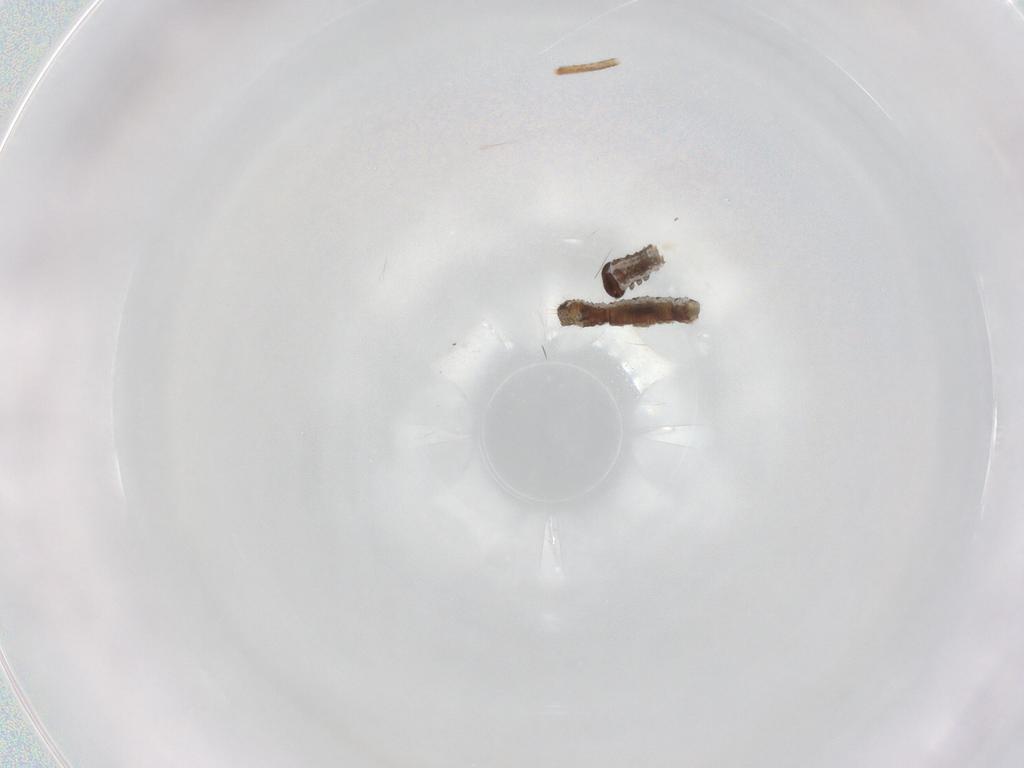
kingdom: Animalia
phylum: Arthropoda
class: Insecta
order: Lepidoptera
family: Geometridae
